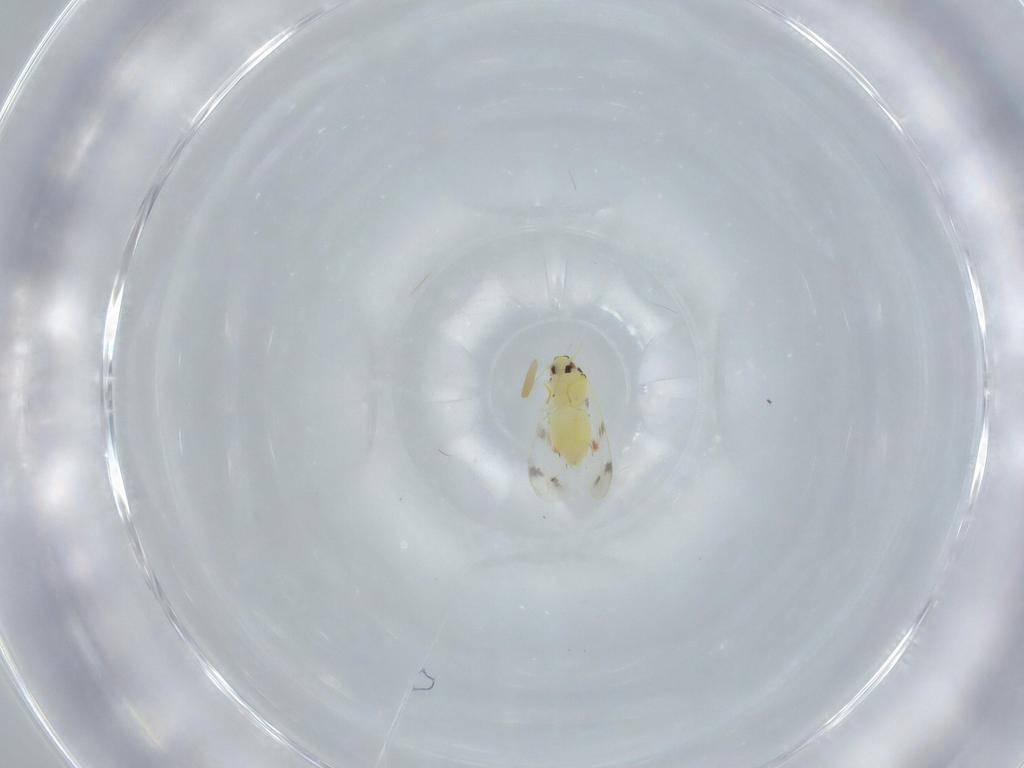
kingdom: Animalia
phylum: Arthropoda
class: Insecta
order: Hemiptera
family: Aleyrodidae
